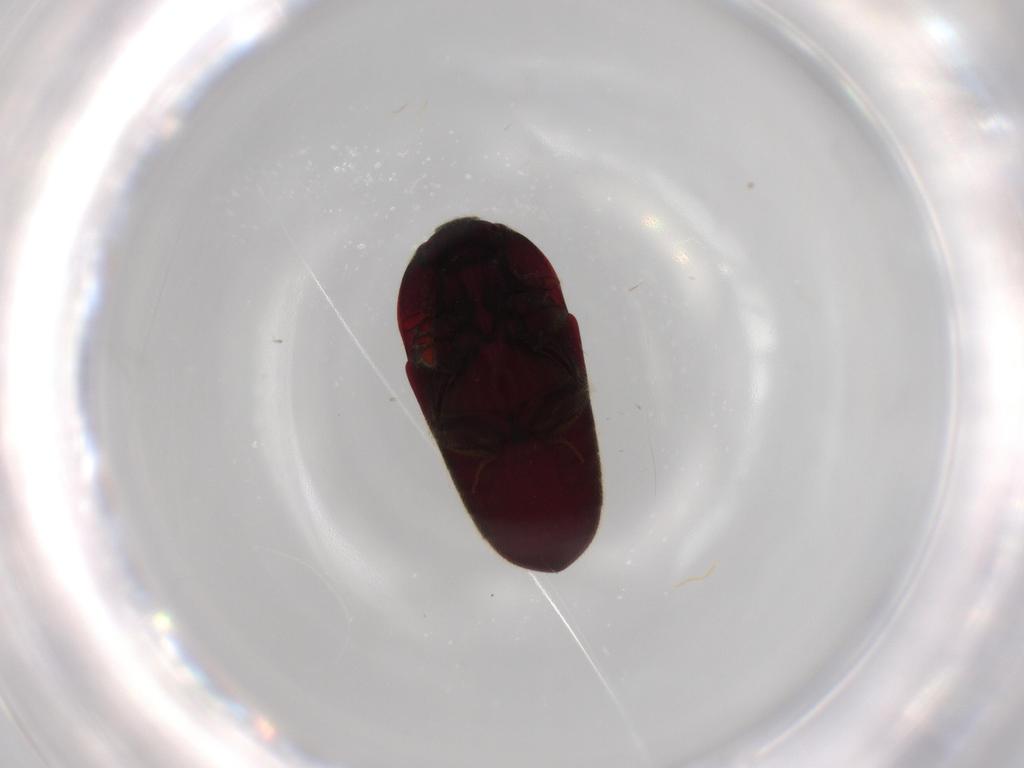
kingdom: Animalia
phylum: Arthropoda
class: Insecta
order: Coleoptera
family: Throscidae
